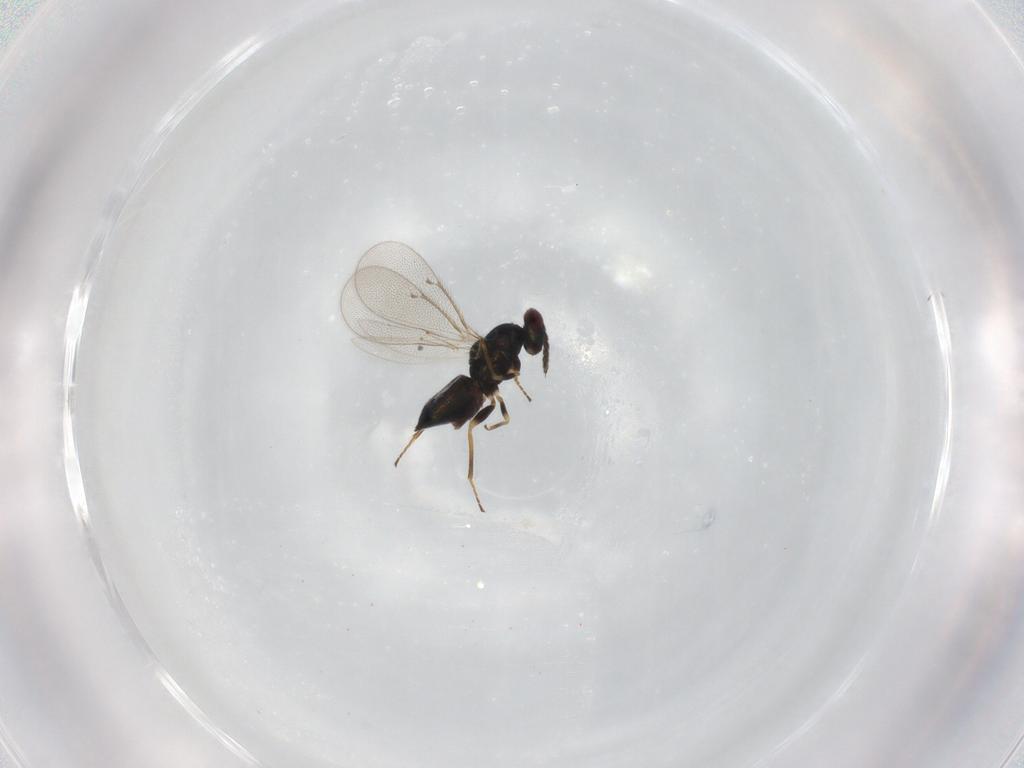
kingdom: Animalia
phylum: Arthropoda
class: Insecta
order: Hymenoptera
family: Eulophidae
